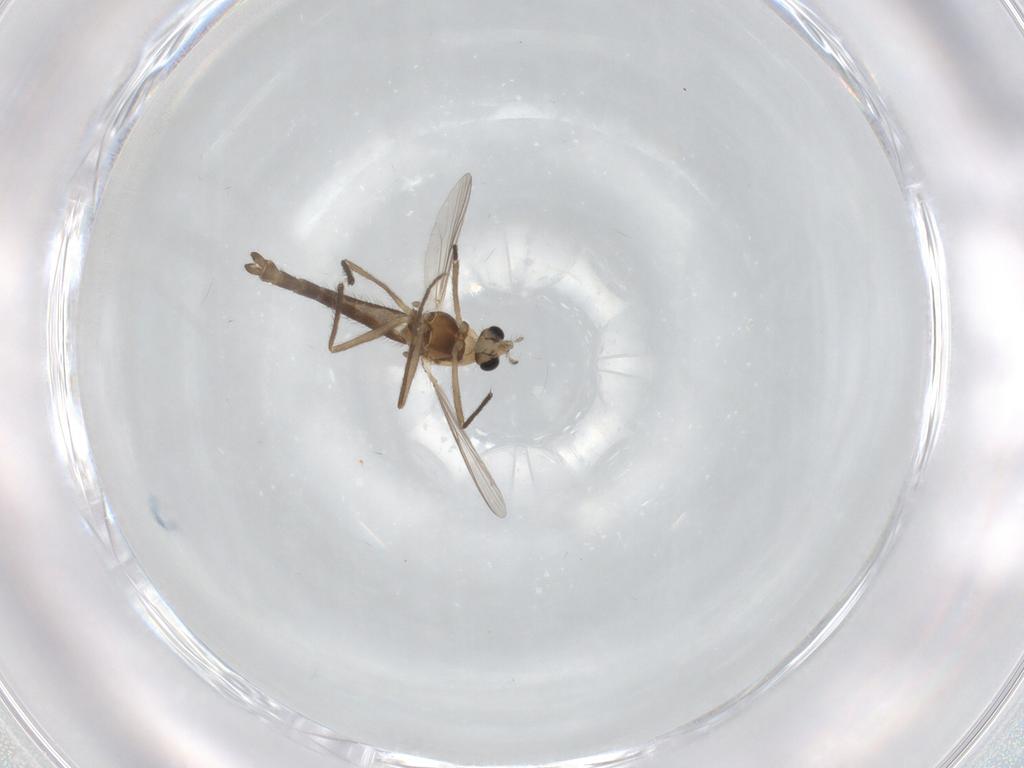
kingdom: Animalia
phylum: Arthropoda
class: Insecta
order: Diptera
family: Chironomidae
